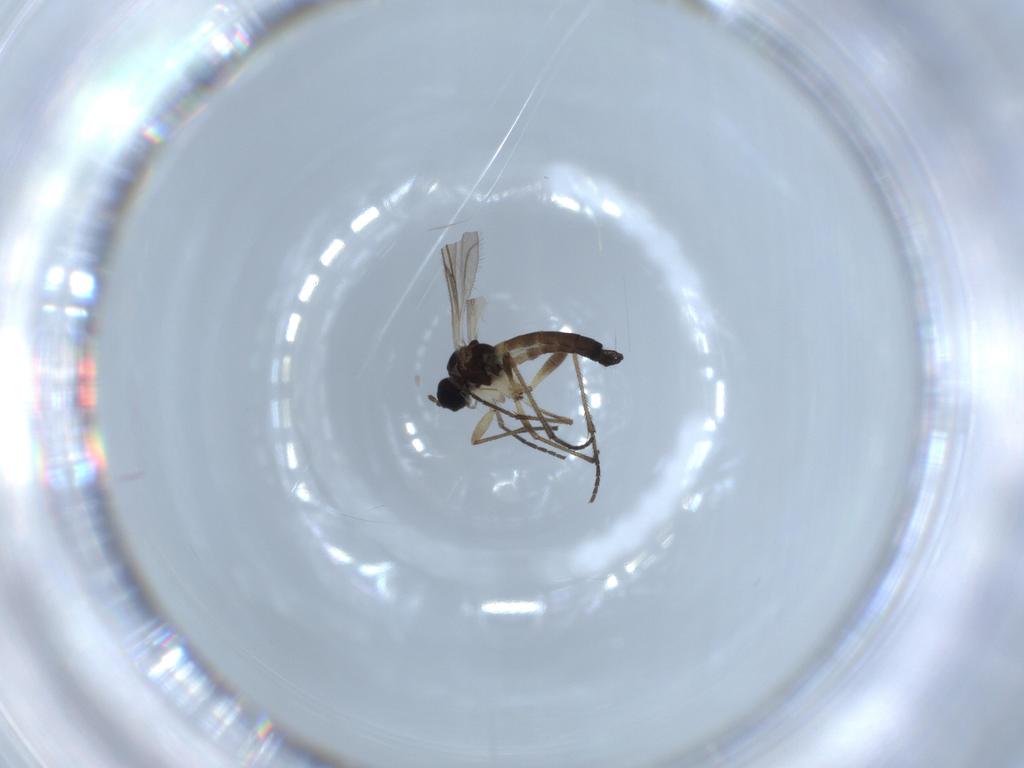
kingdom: Animalia
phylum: Arthropoda
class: Insecta
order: Diptera
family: Sciaridae
